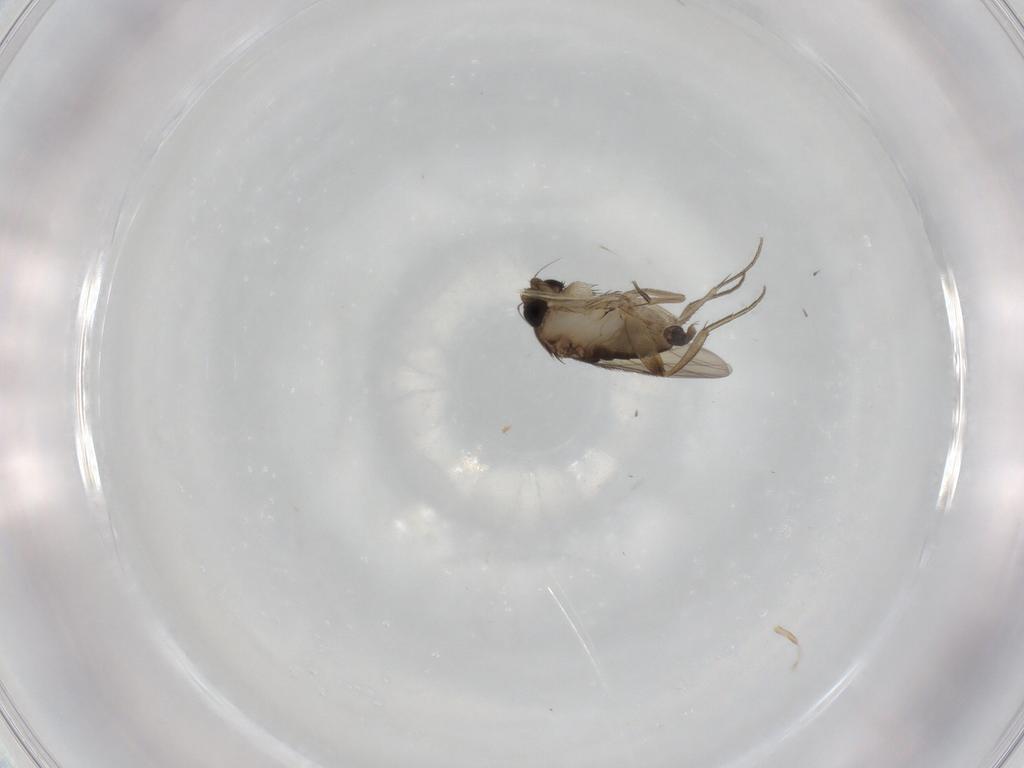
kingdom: Animalia
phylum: Arthropoda
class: Insecta
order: Diptera
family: Phoridae
